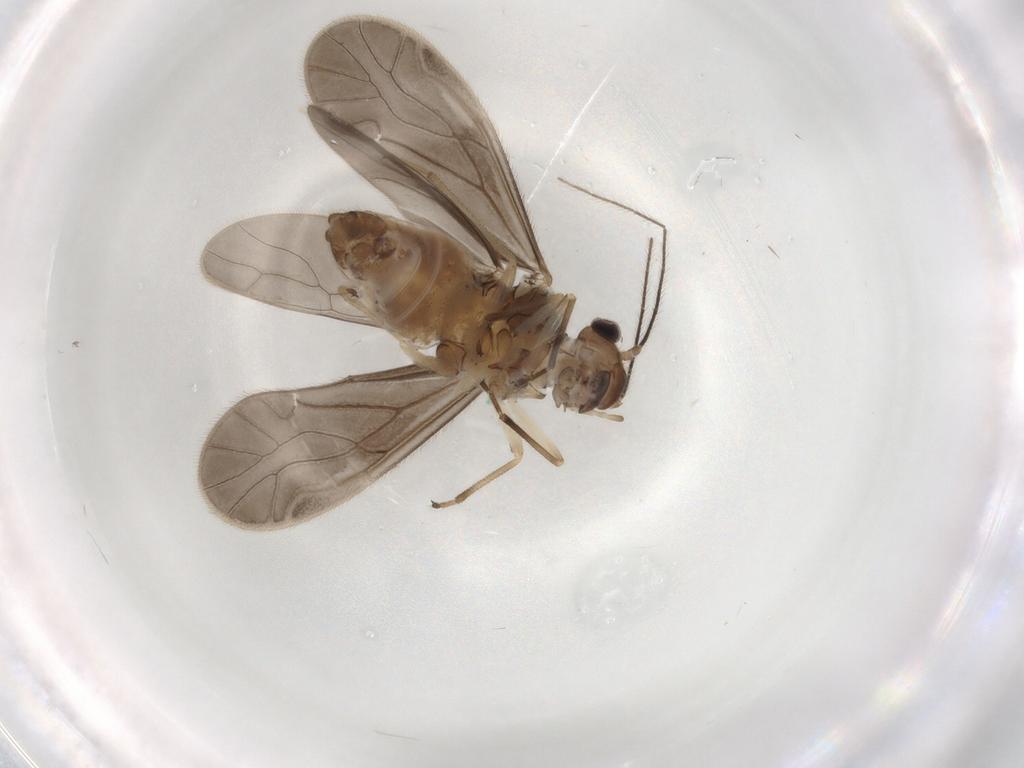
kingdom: Animalia
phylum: Arthropoda
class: Insecta
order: Psocodea
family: Caeciliusidae
